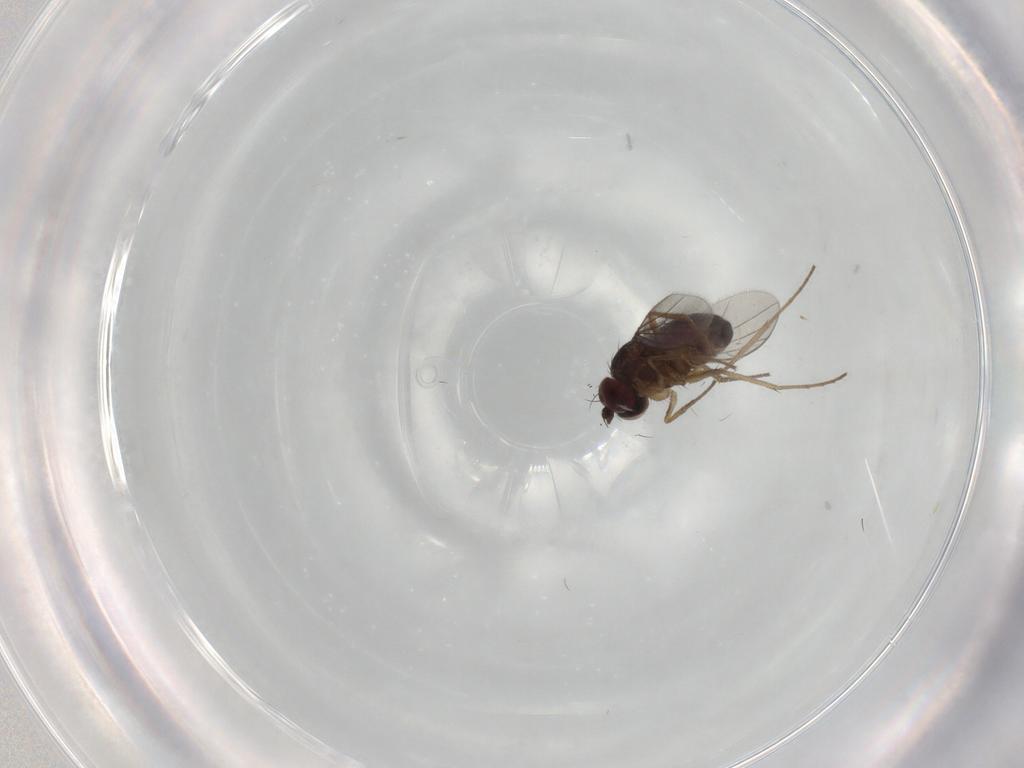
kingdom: Animalia
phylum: Arthropoda
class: Insecta
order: Diptera
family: Dolichopodidae
